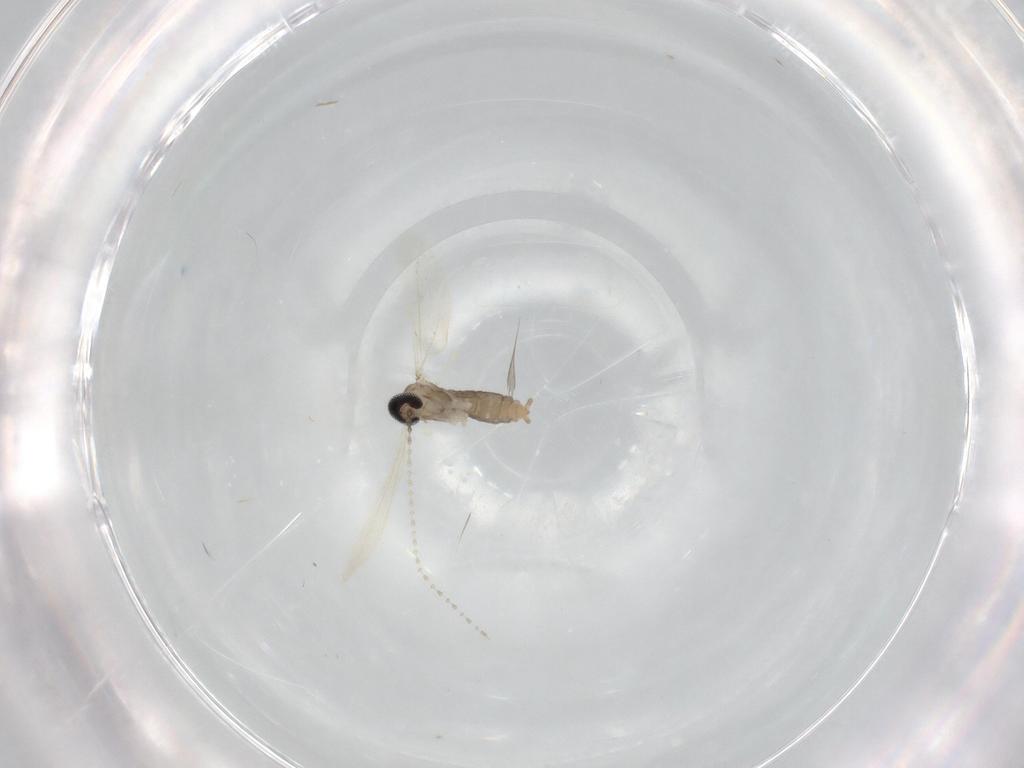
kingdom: Animalia
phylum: Arthropoda
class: Insecta
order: Diptera
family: Cecidomyiidae
